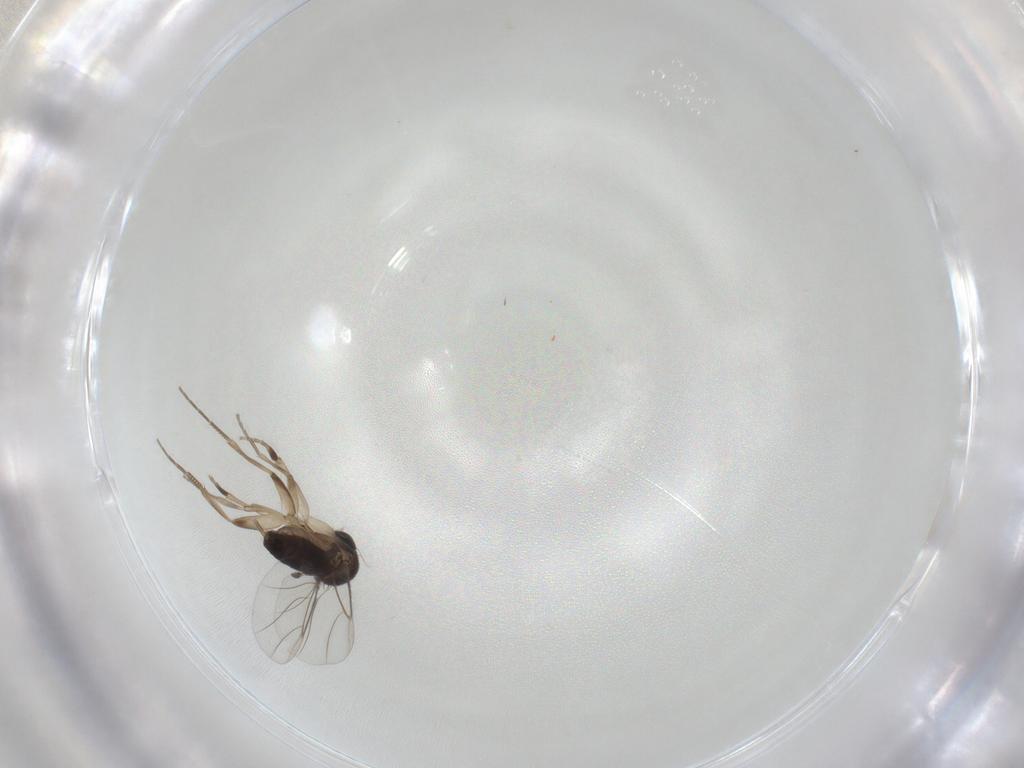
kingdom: Animalia
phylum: Arthropoda
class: Insecta
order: Diptera
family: Phoridae
